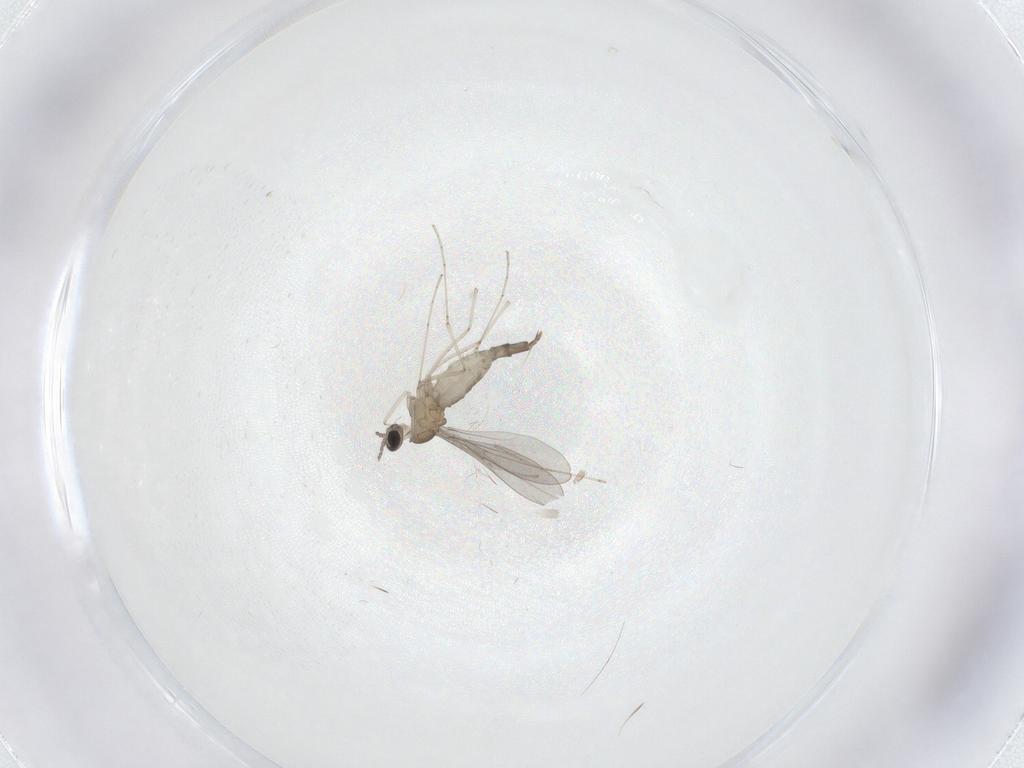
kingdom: Animalia
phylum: Arthropoda
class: Insecta
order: Diptera
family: Cecidomyiidae
